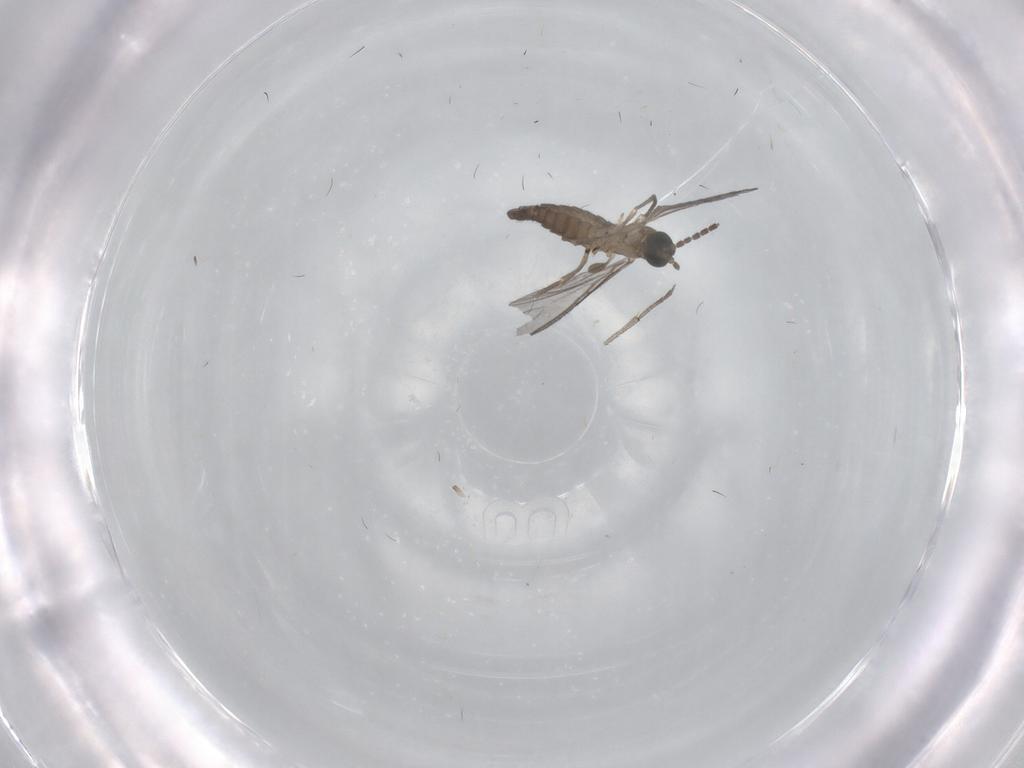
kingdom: Animalia
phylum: Arthropoda
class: Insecta
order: Diptera
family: Sciaridae
